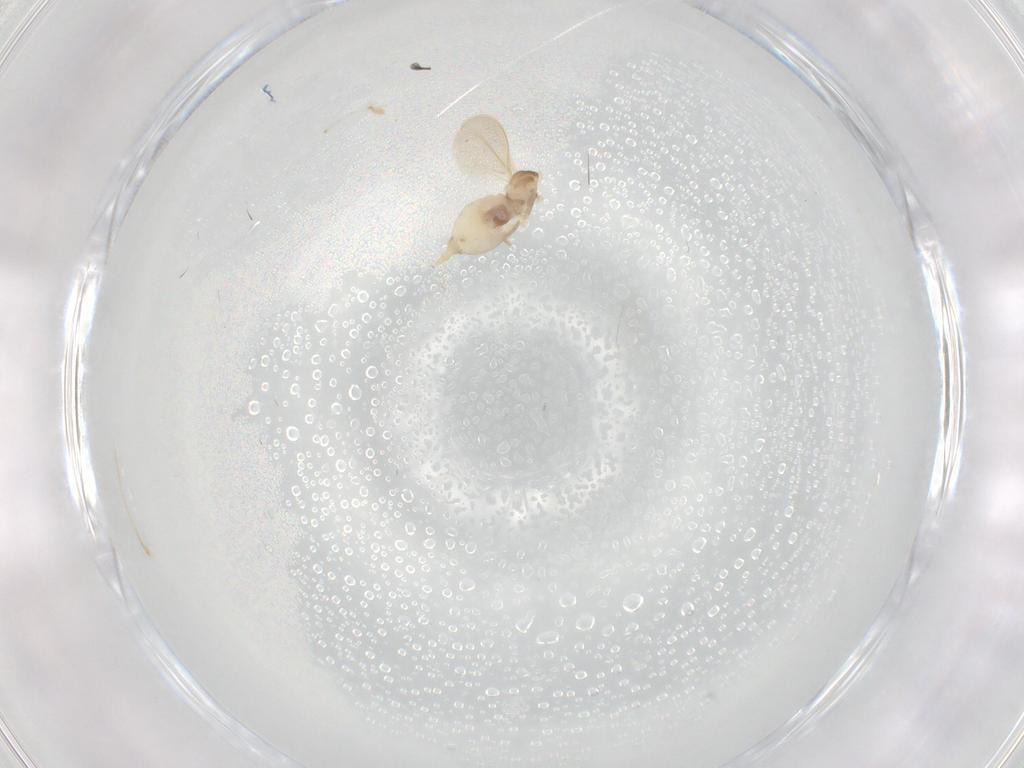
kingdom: Animalia
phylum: Arthropoda
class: Insecta
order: Diptera
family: Cecidomyiidae
